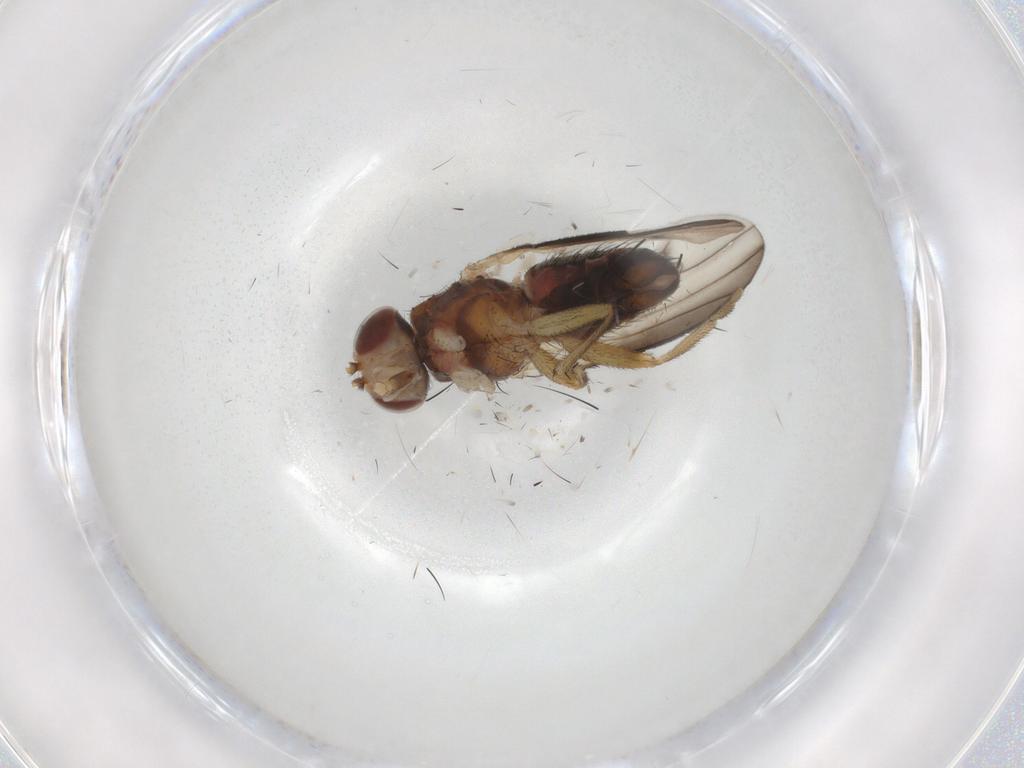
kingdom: Animalia
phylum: Arthropoda
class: Insecta
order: Diptera
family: Heleomyzidae
